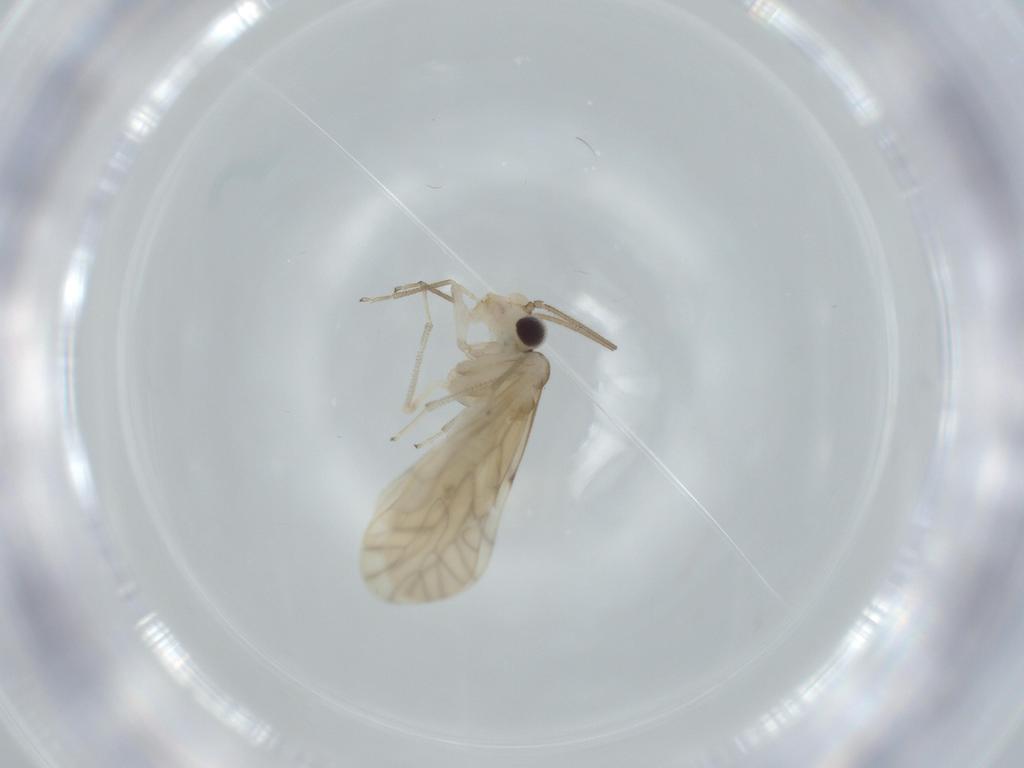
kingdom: Animalia
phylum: Arthropoda
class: Insecta
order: Psocodea
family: Caeciliusidae
